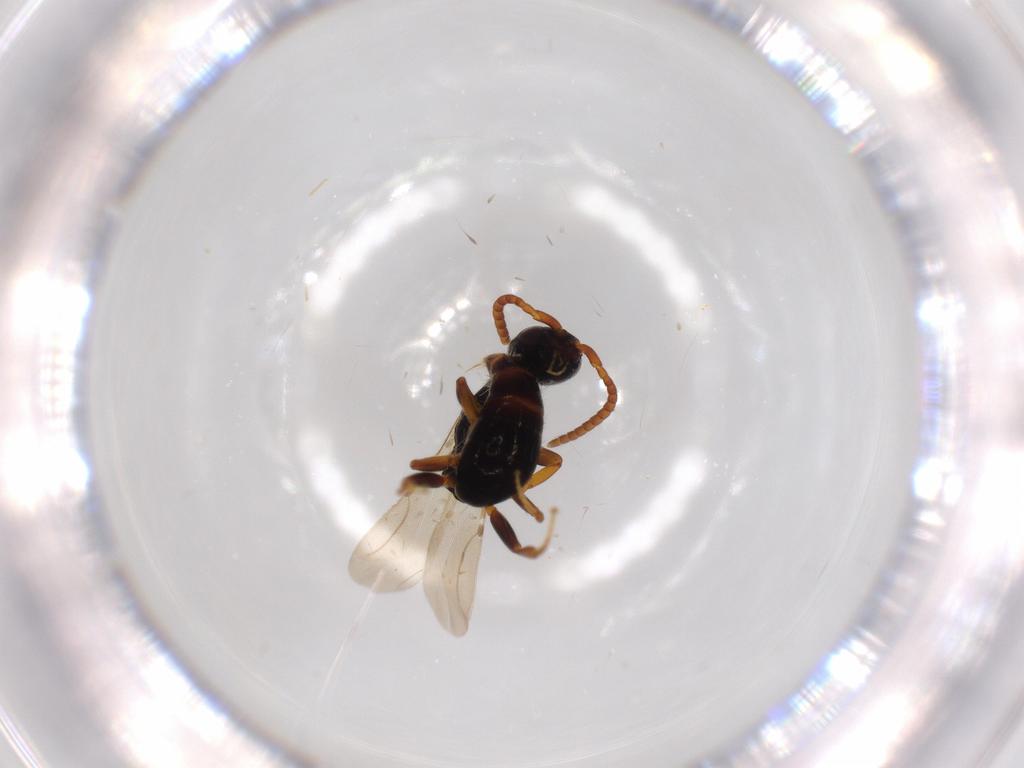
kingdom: Animalia
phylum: Arthropoda
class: Insecta
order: Hymenoptera
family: Bethylidae
